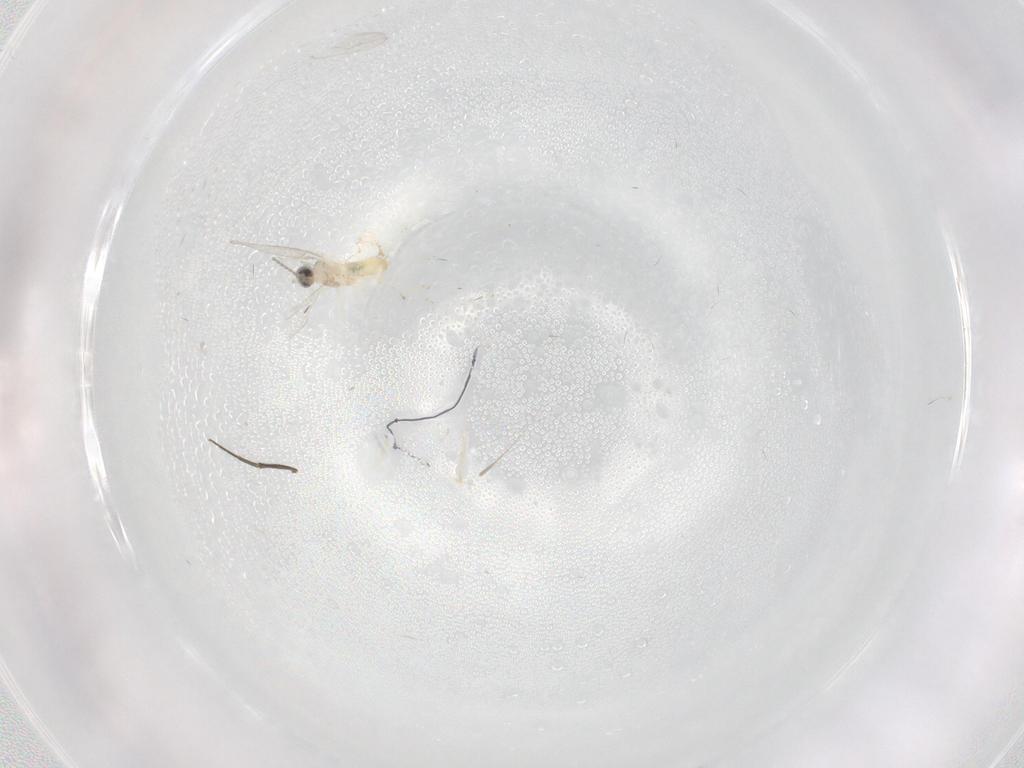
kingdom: Animalia
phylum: Arthropoda
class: Insecta
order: Diptera
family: Cecidomyiidae
